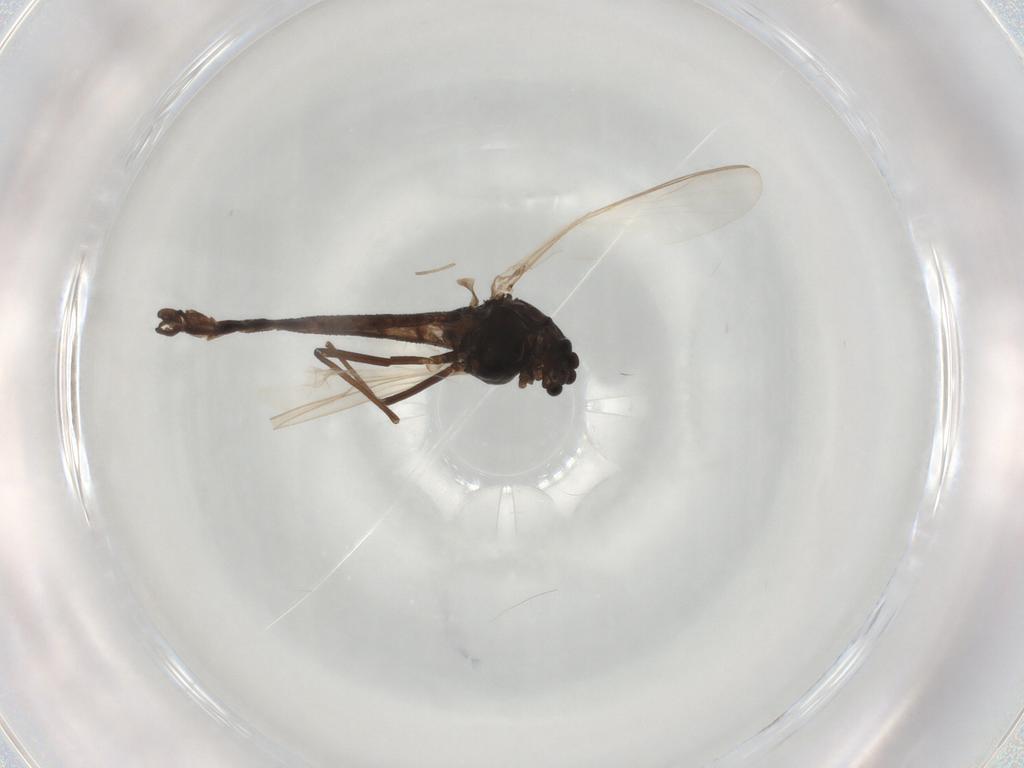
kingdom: Animalia
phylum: Arthropoda
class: Insecta
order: Diptera
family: Chironomidae
